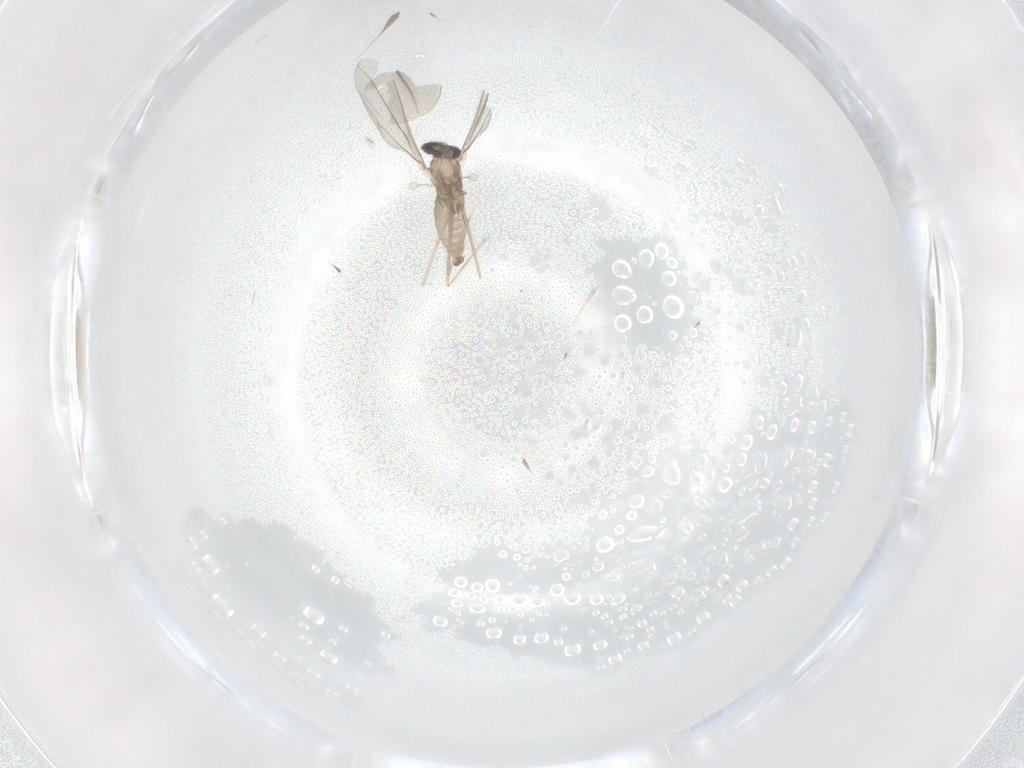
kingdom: Animalia
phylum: Arthropoda
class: Insecta
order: Diptera
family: Cecidomyiidae
